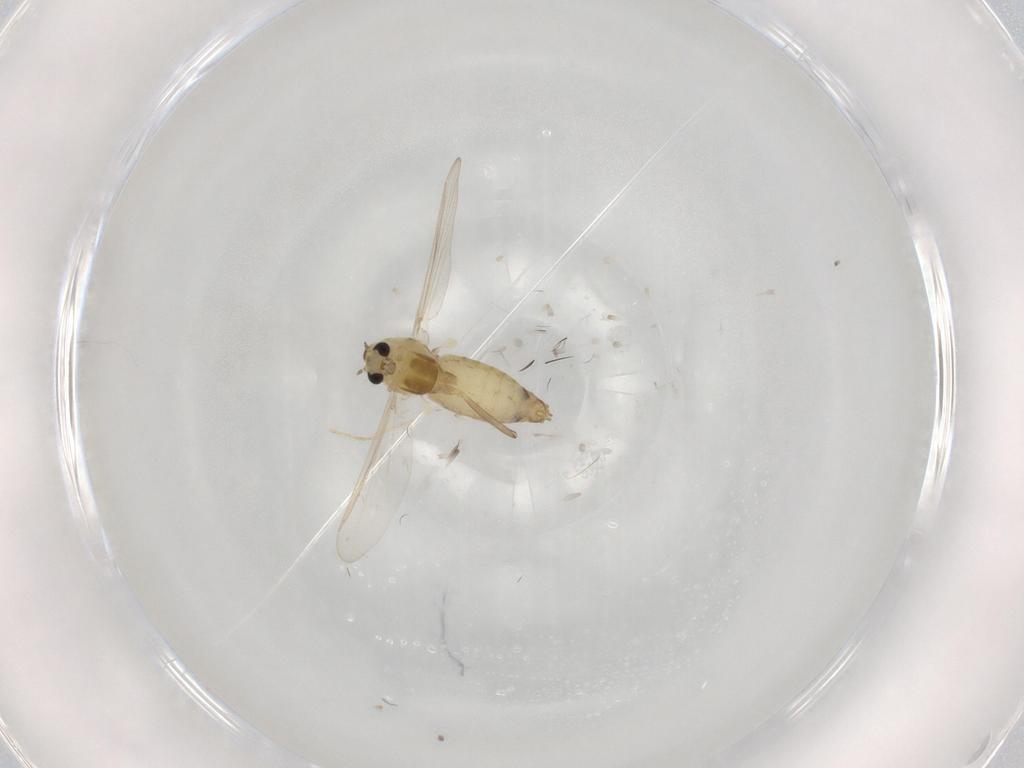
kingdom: Animalia
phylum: Arthropoda
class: Insecta
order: Diptera
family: Chironomidae
